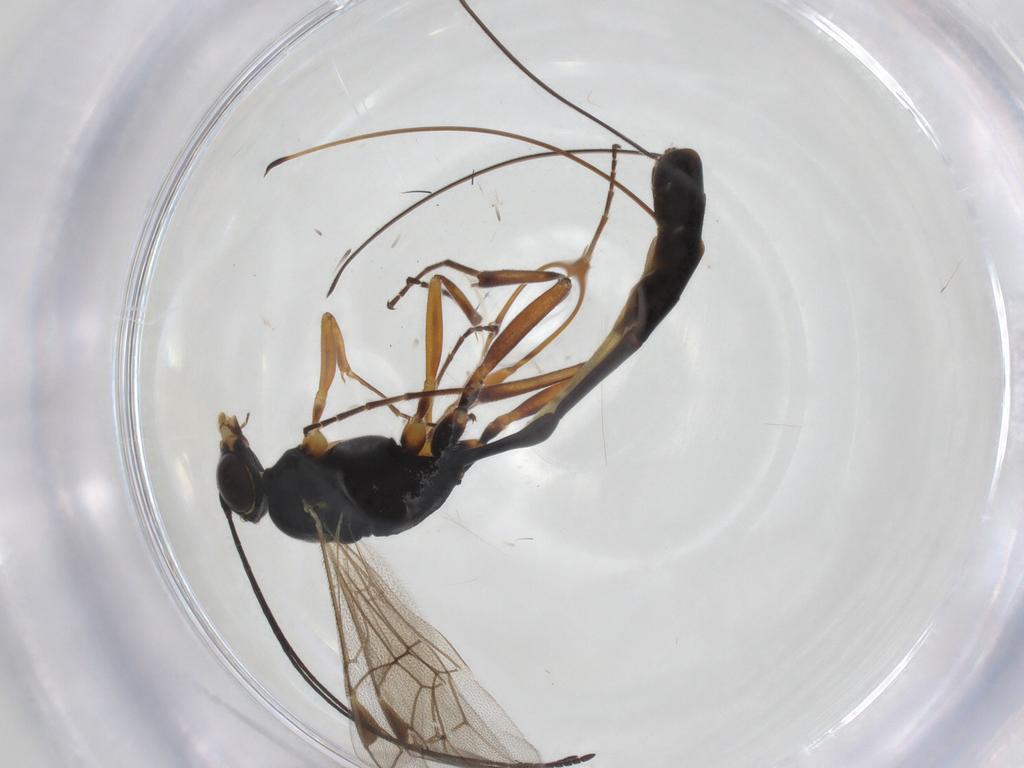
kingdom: Animalia
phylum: Arthropoda
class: Insecta
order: Hymenoptera
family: Ichneumonidae
